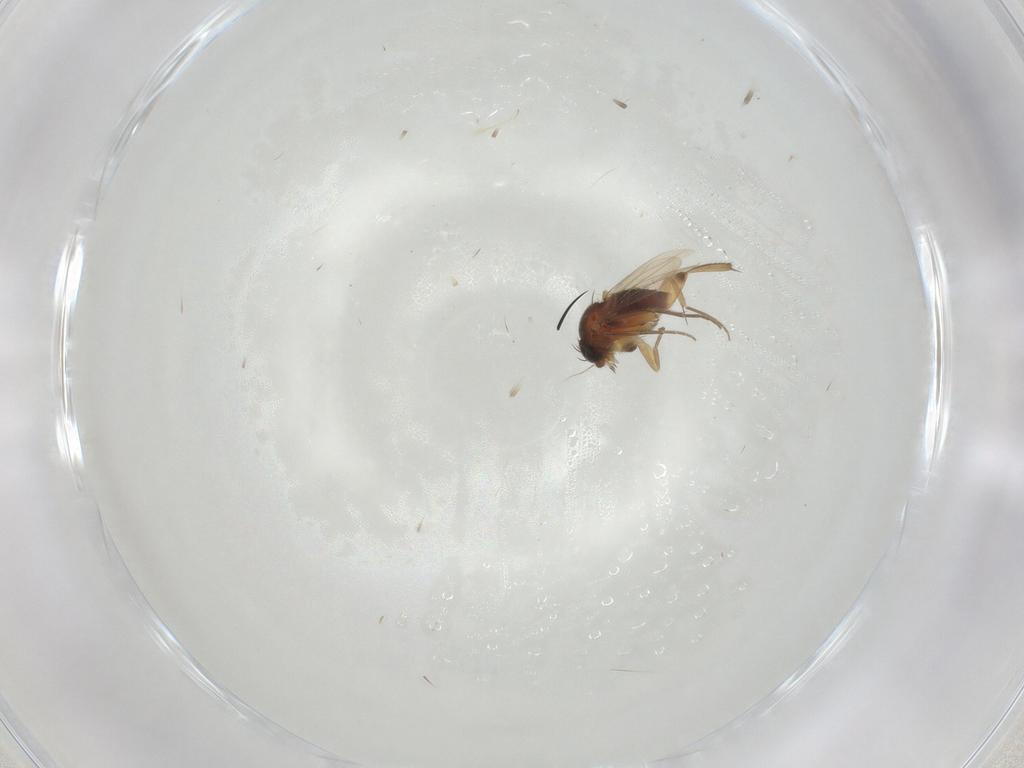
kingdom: Animalia
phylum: Arthropoda
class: Insecta
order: Diptera
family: Phoridae
